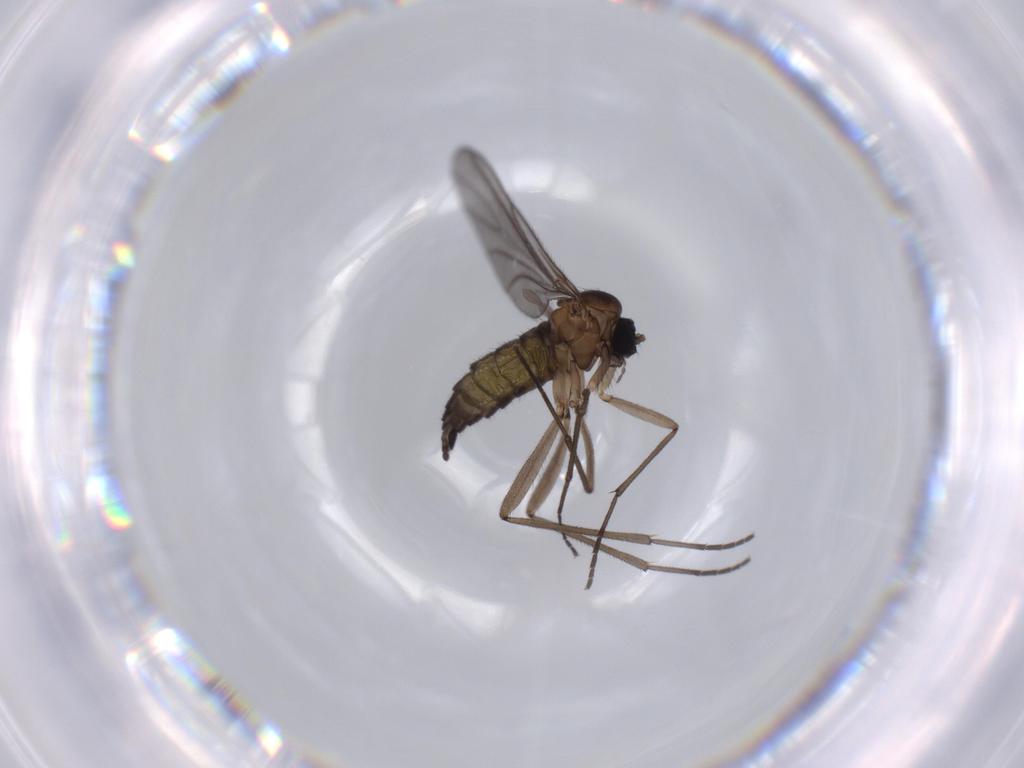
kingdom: Animalia
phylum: Arthropoda
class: Insecta
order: Diptera
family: Sciaridae
